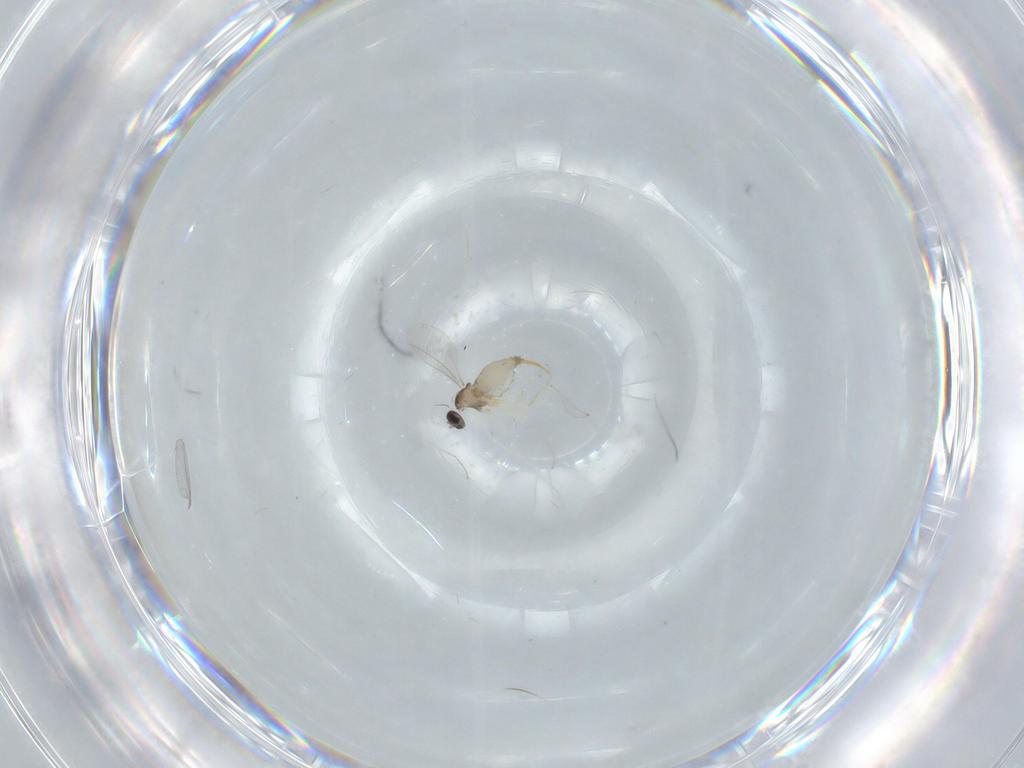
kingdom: Animalia
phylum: Arthropoda
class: Insecta
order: Diptera
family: Cecidomyiidae
